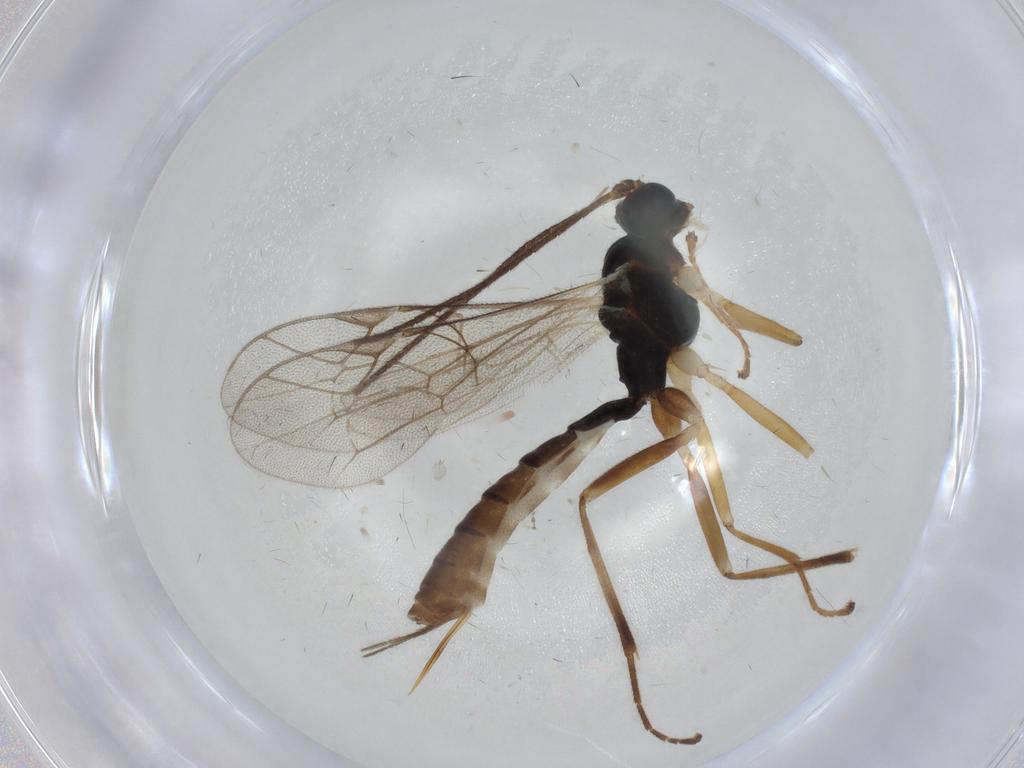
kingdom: Animalia
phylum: Arthropoda
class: Insecta
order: Hymenoptera
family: Ichneumonidae
